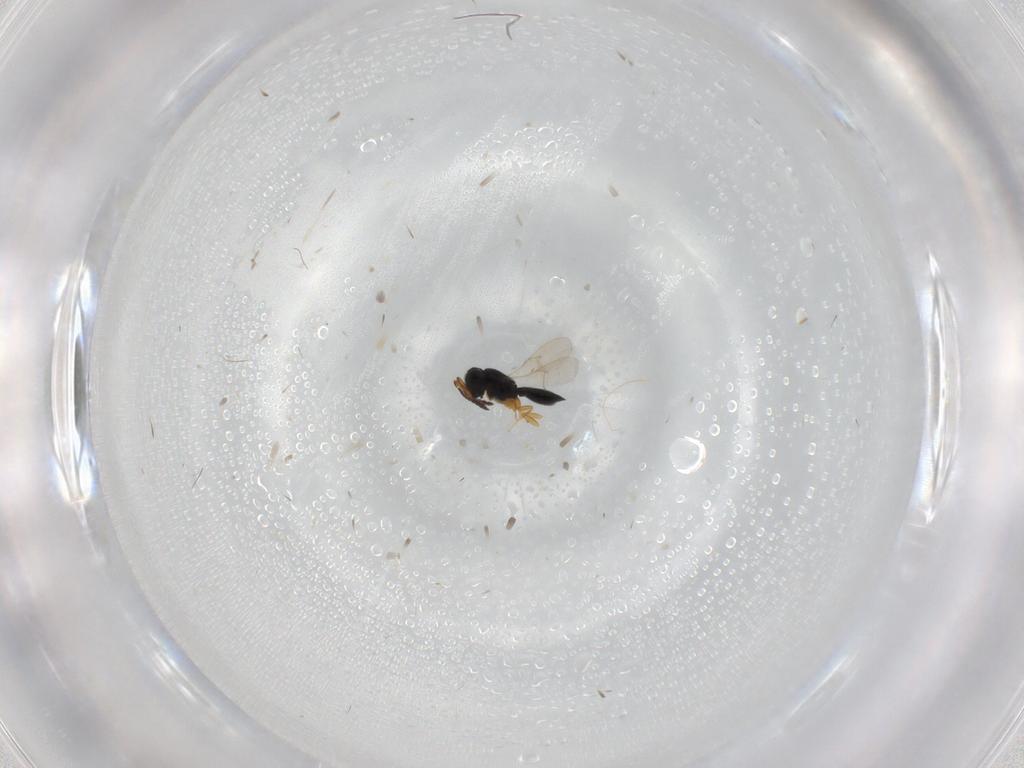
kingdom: Animalia
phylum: Arthropoda
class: Insecta
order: Hymenoptera
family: Scelionidae
